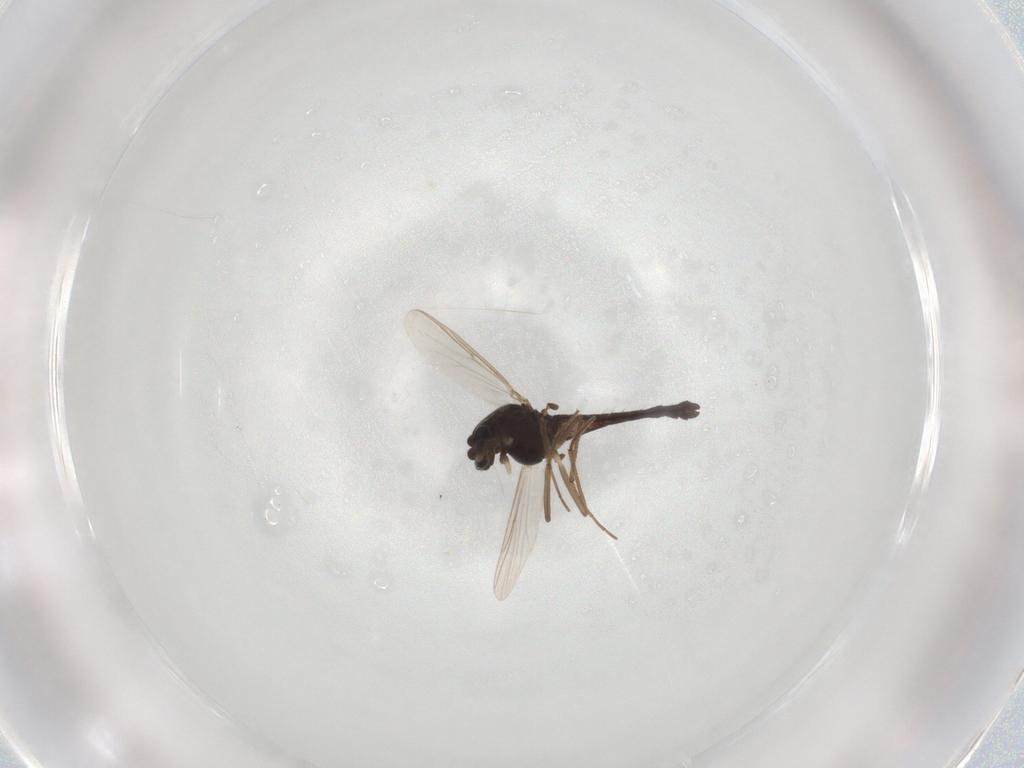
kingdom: Animalia
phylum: Arthropoda
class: Insecta
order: Diptera
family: Chironomidae
